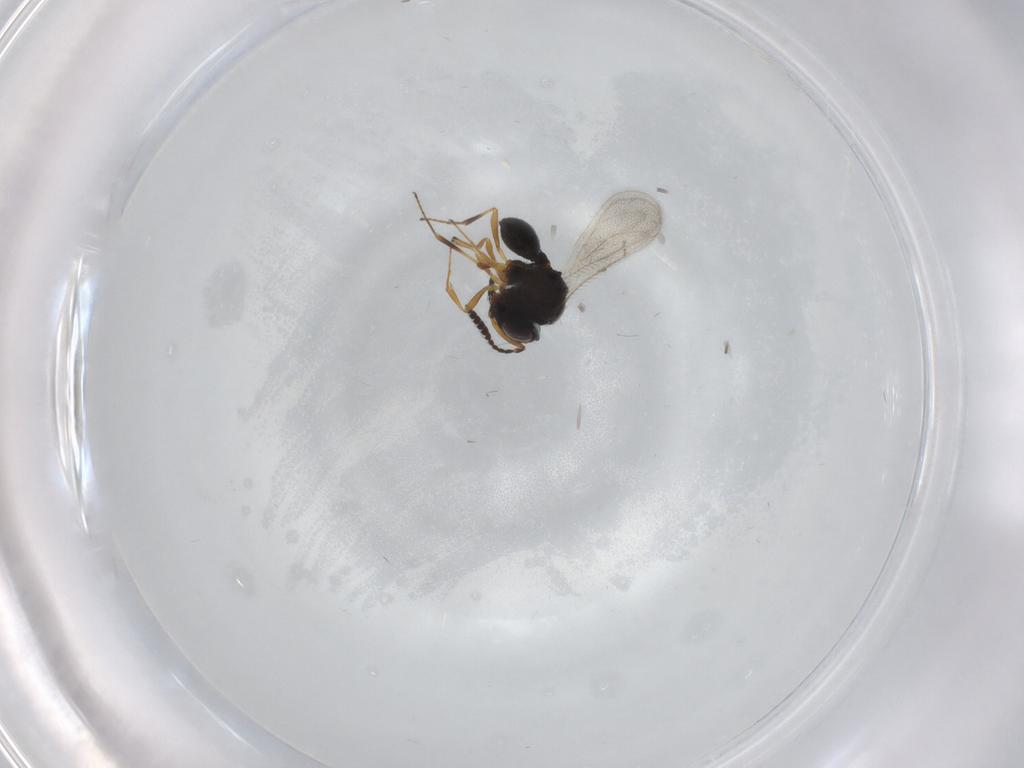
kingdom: Animalia
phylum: Arthropoda
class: Insecta
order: Hymenoptera
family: Scelionidae
